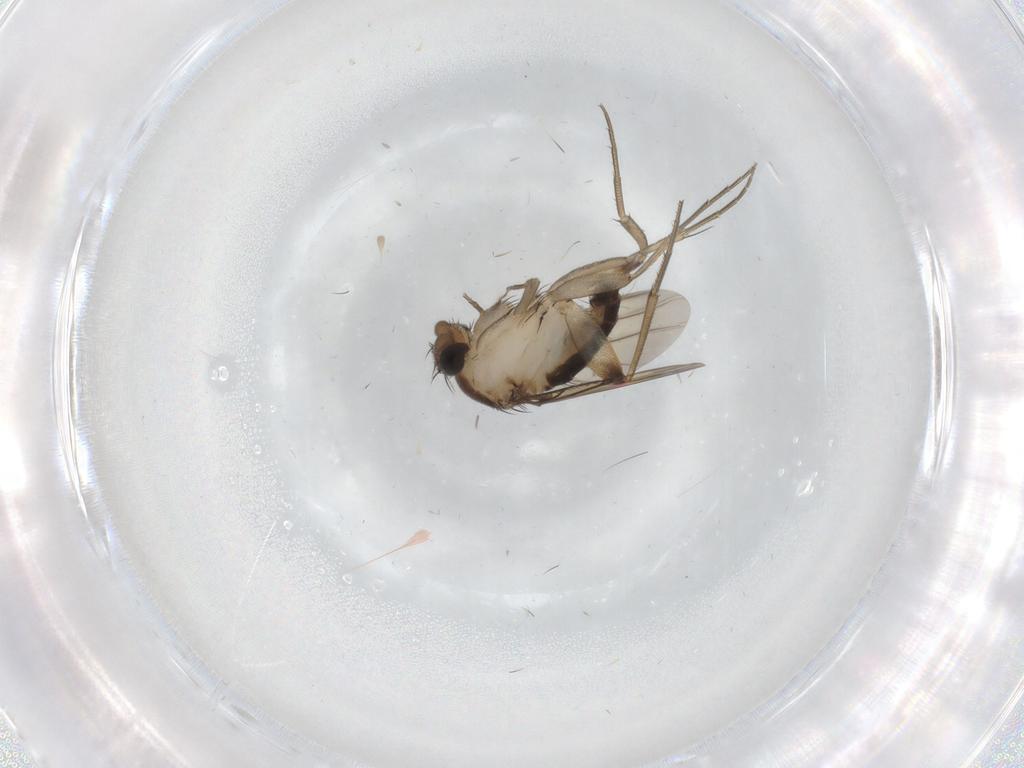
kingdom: Animalia
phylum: Arthropoda
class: Insecta
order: Diptera
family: Phoridae
